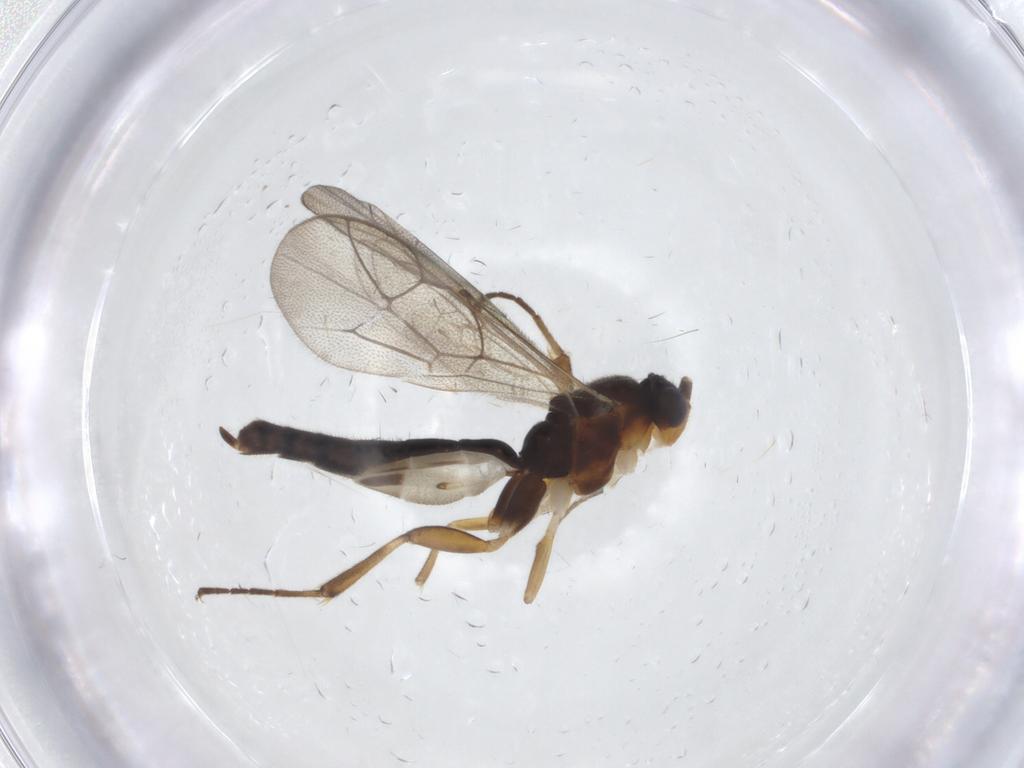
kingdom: Animalia
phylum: Arthropoda
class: Insecta
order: Hymenoptera
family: Ichneumonidae
